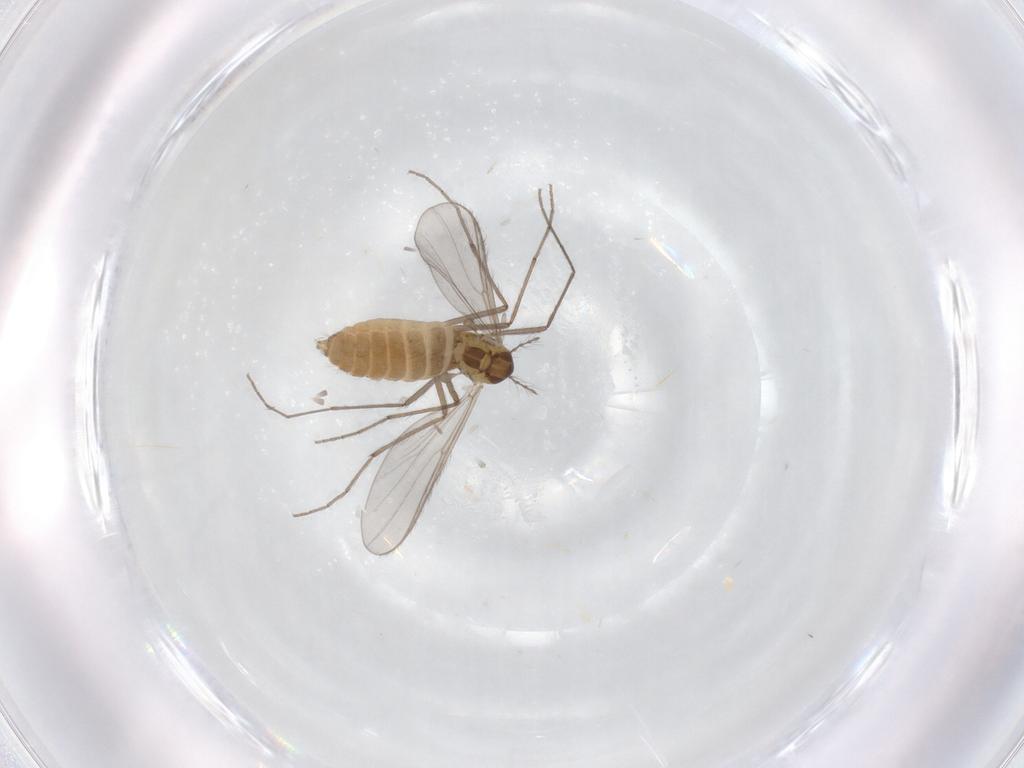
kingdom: Animalia
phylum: Arthropoda
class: Insecta
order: Diptera
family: Chironomidae
